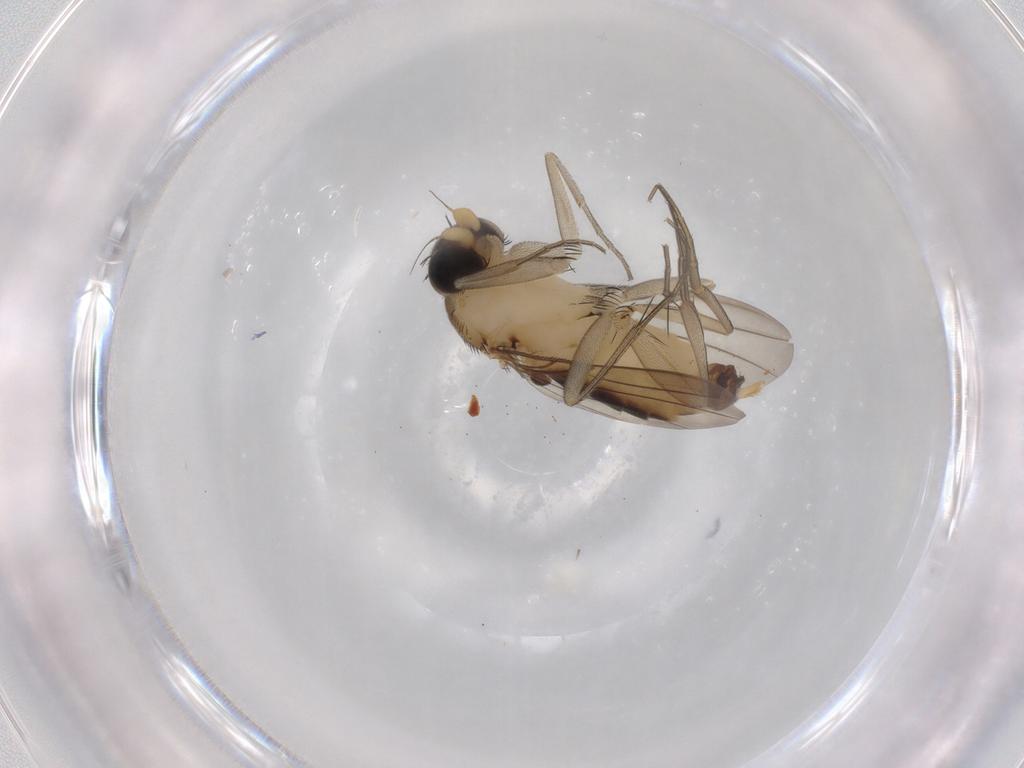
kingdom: Animalia
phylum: Arthropoda
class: Insecta
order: Diptera
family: Phoridae
